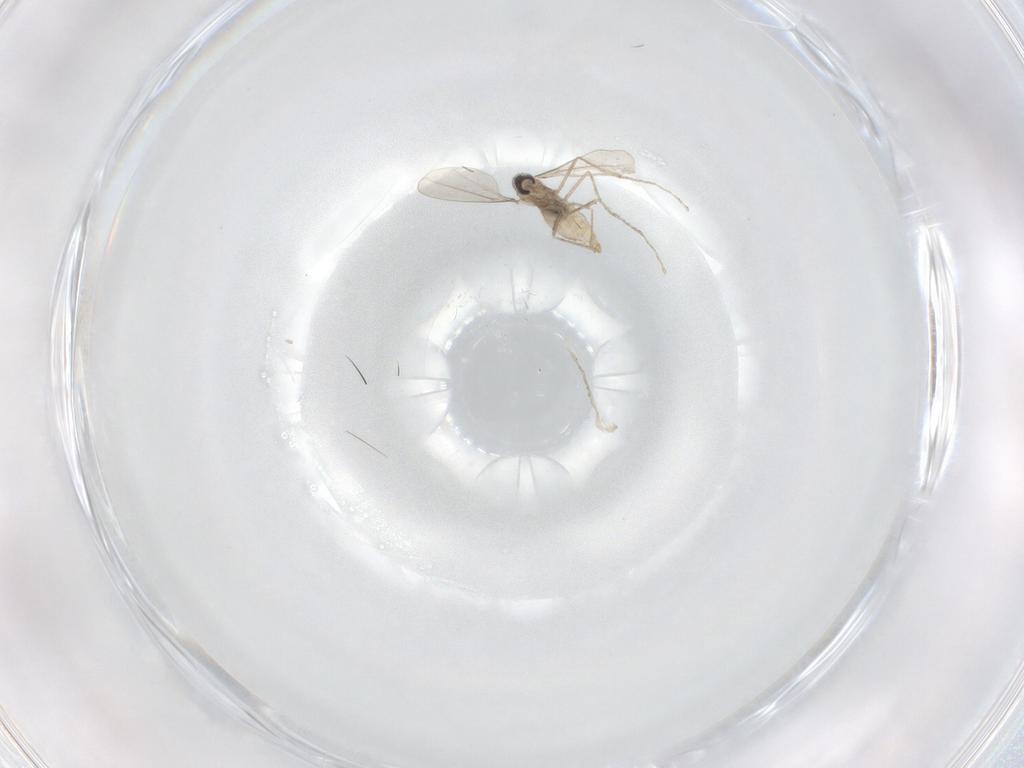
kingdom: Animalia
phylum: Arthropoda
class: Insecta
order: Diptera
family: Cecidomyiidae
